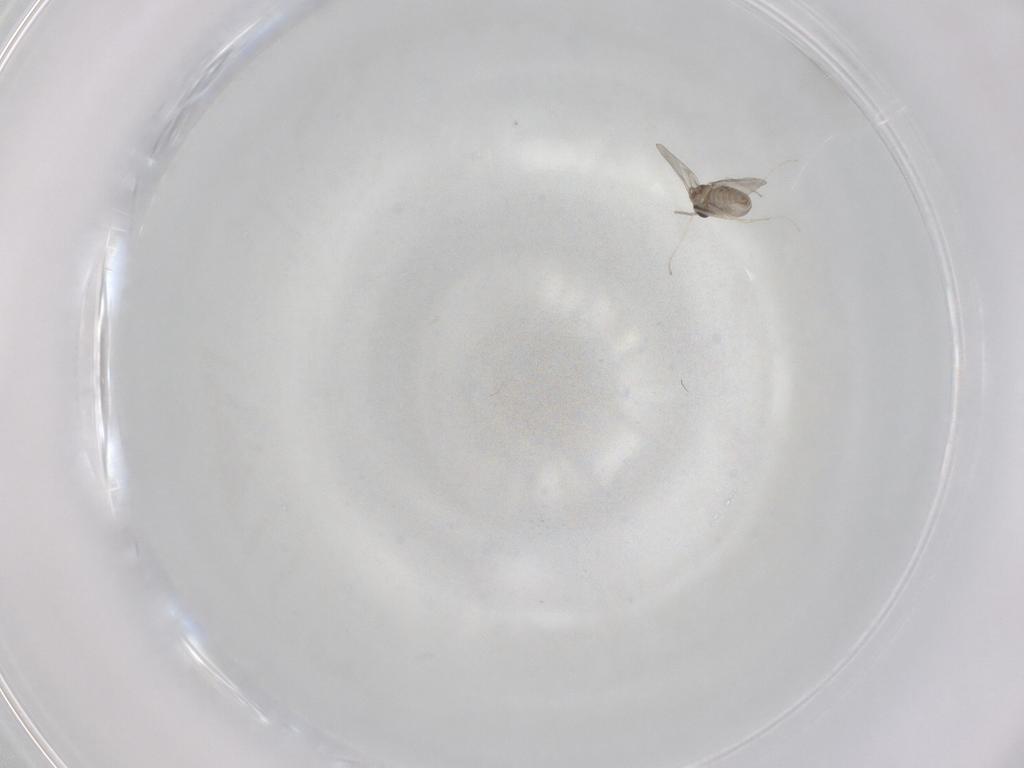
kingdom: Animalia
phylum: Arthropoda
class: Insecta
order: Diptera
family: Cecidomyiidae
